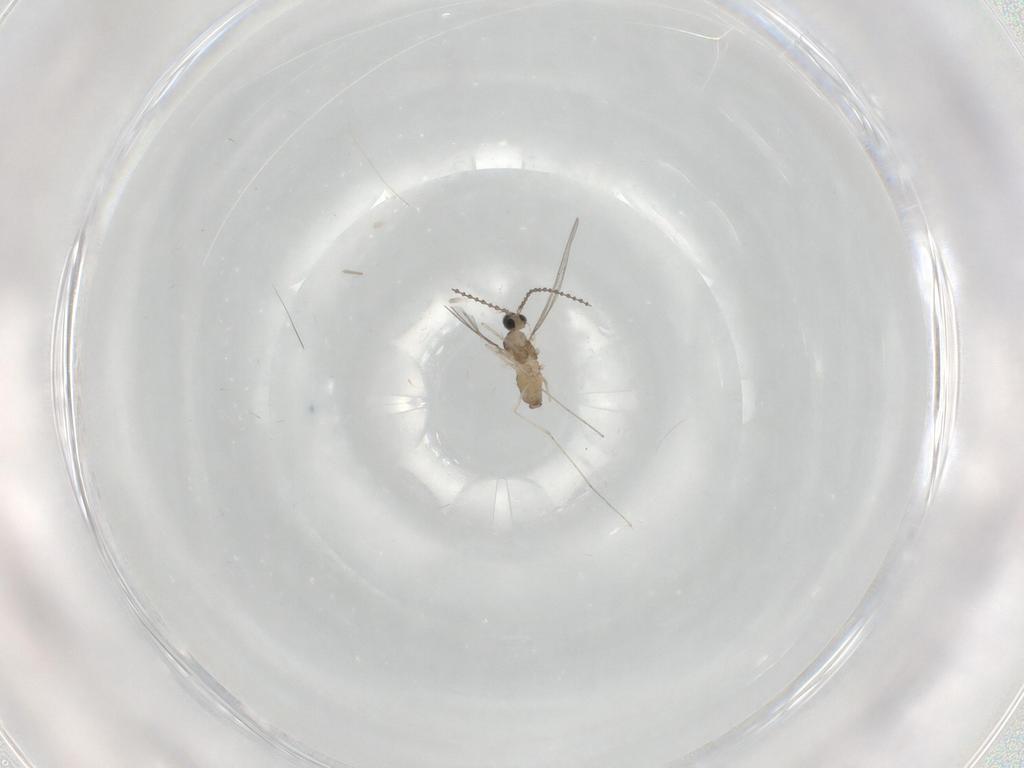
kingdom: Animalia
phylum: Arthropoda
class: Insecta
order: Diptera
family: Cecidomyiidae
